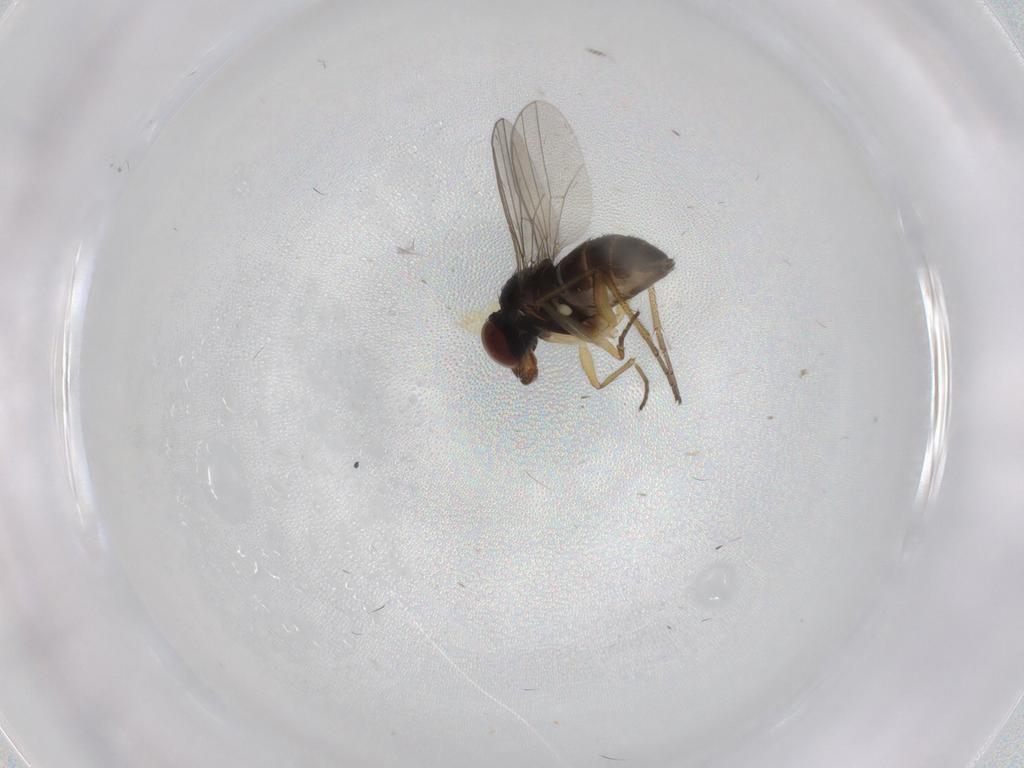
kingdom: Animalia
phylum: Arthropoda
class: Insecta
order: Diptera
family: Dolichopodidae
